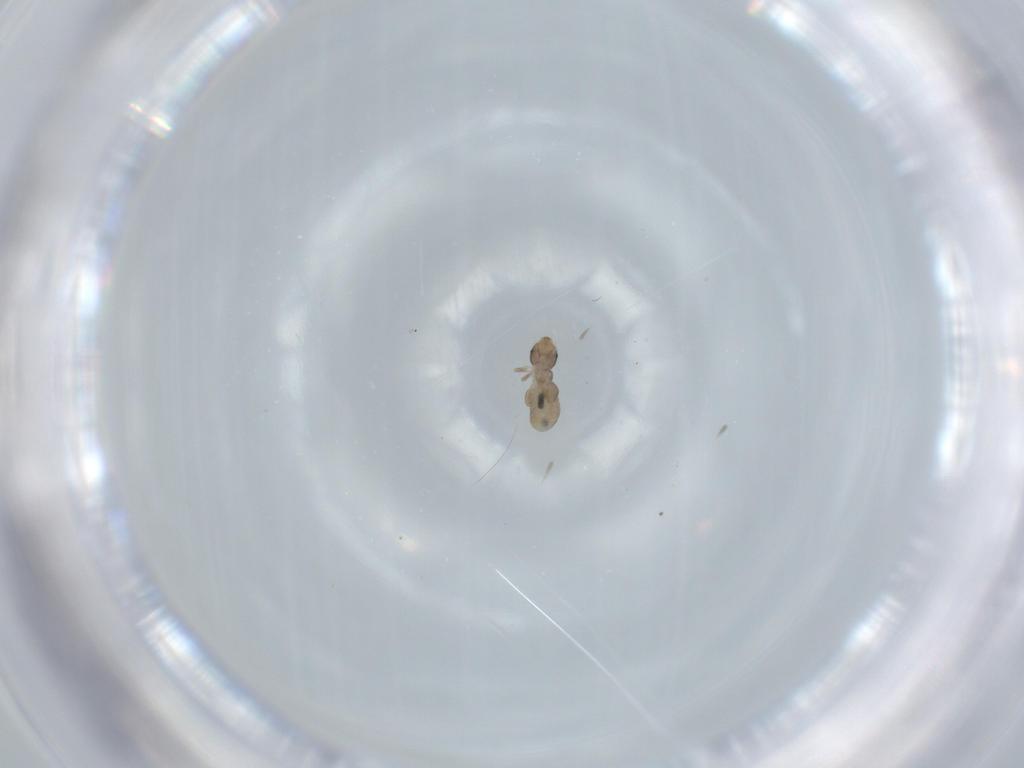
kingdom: Animalia
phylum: Arthropoda
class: Insecta
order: Psocodea
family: Liposcelididae
